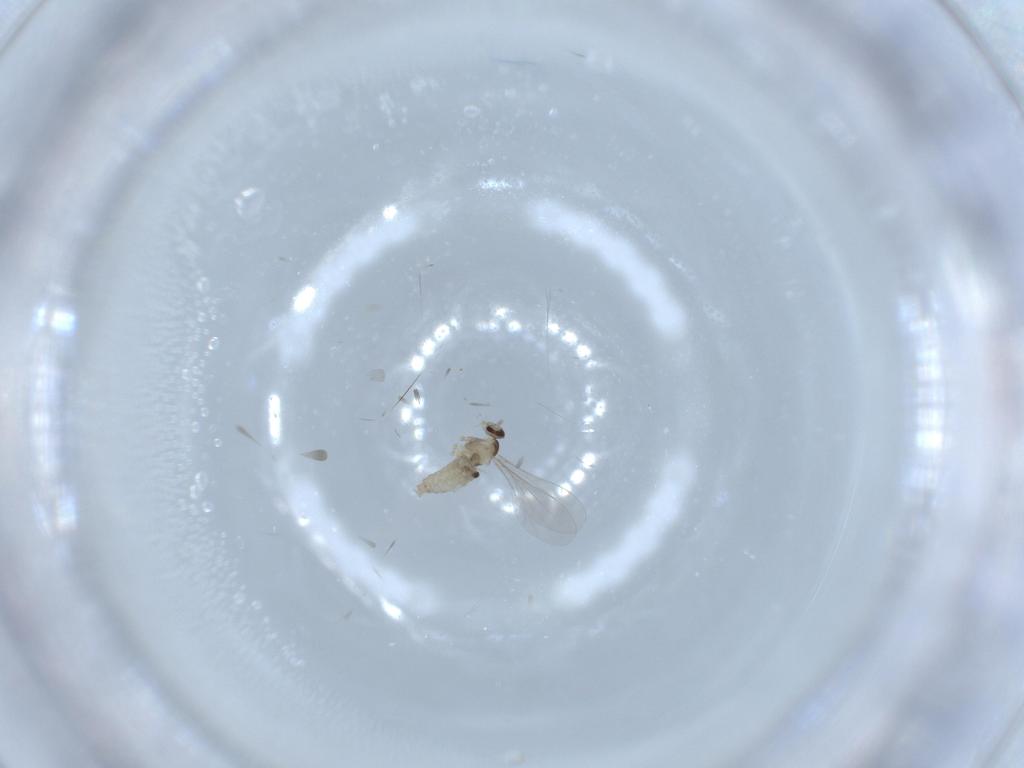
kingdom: Animalia
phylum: Arthropoda
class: Insecta
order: Diptera
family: Cecidomyiidae
